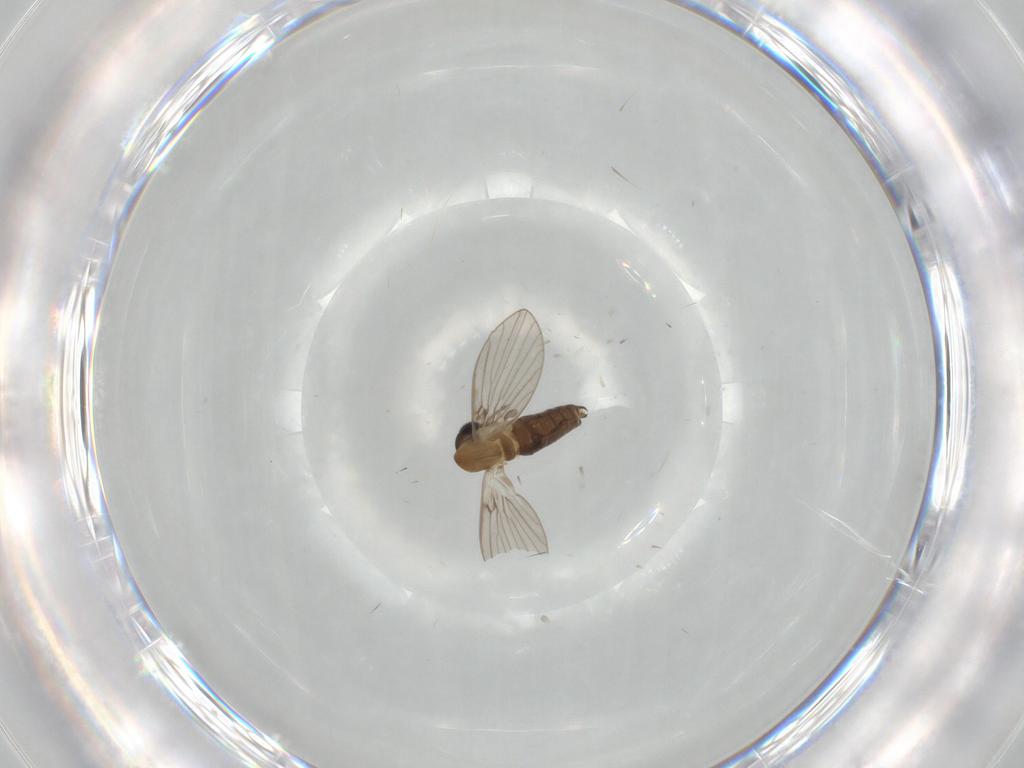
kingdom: Animalia
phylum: Arthropoda
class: Insecta
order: Diptera
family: Psychodidae
